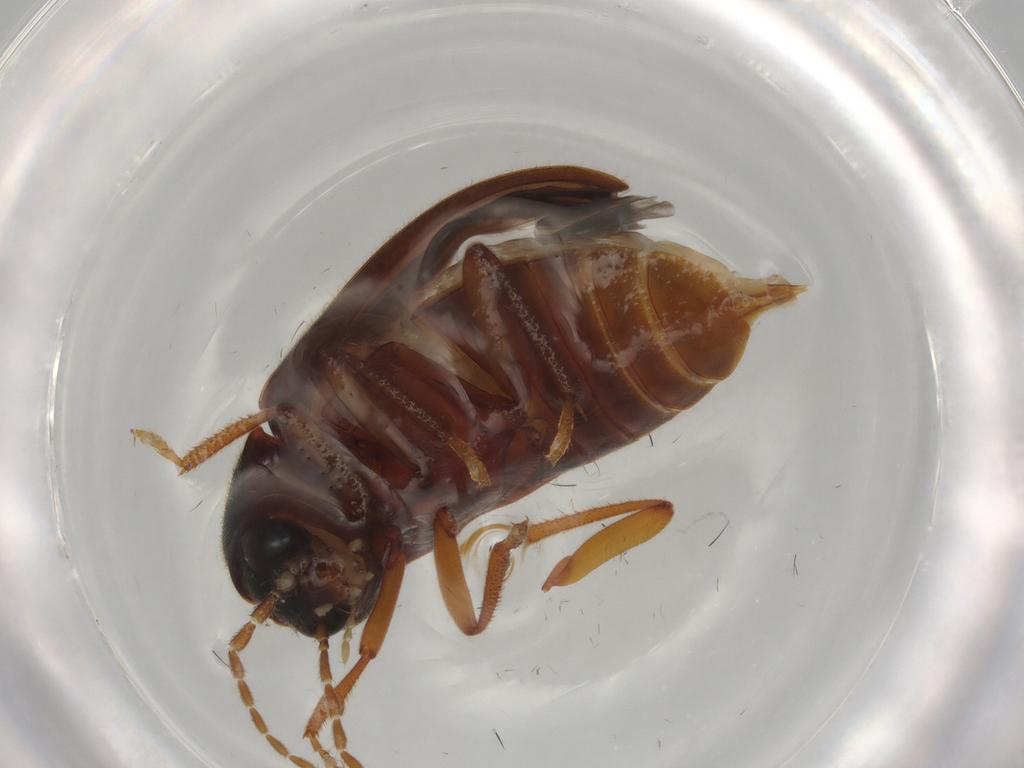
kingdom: Animalia
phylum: Arthropoda
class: Insecta
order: Coleoptera
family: Ptilodactylidae
